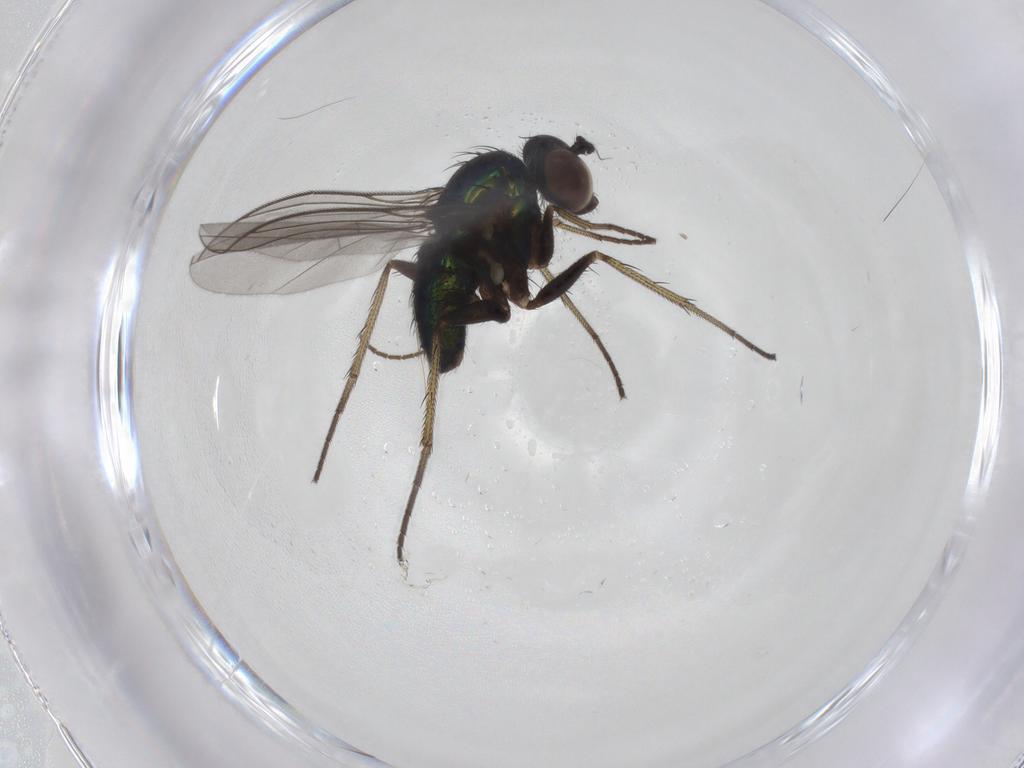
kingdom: Animalia
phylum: Arthropoda
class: Insecta
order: Diptera
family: Dolichopodidae
